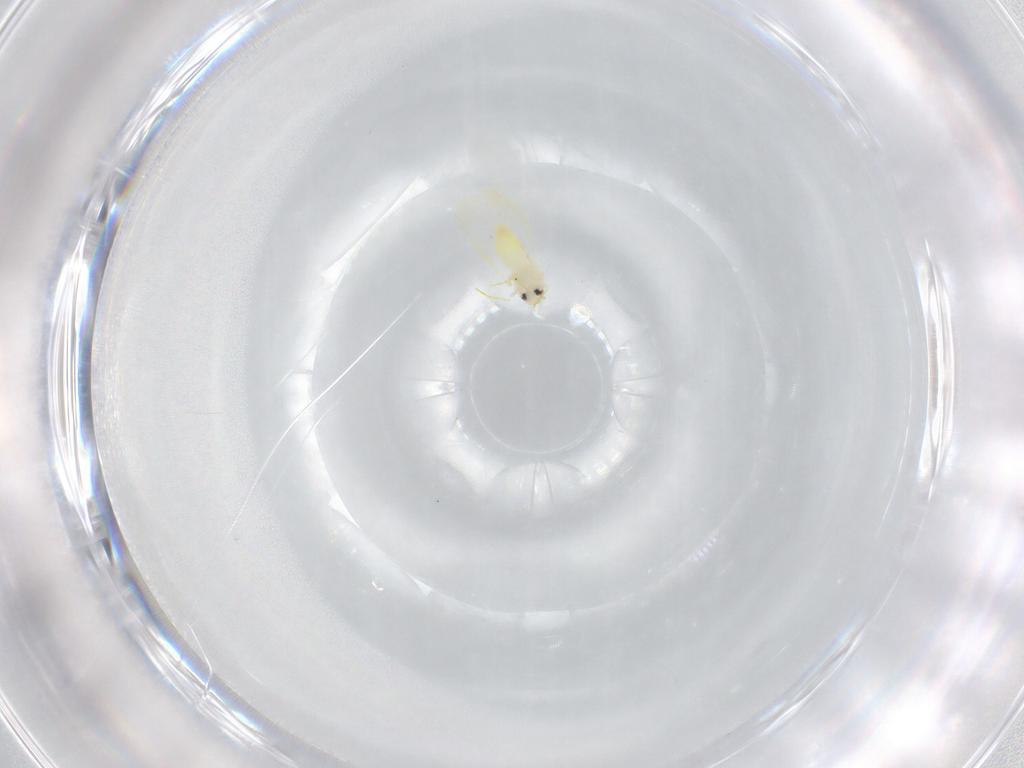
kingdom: Animalia
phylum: Arthropoda
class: Insecta
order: Hemiptera
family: Aleyrodidae
